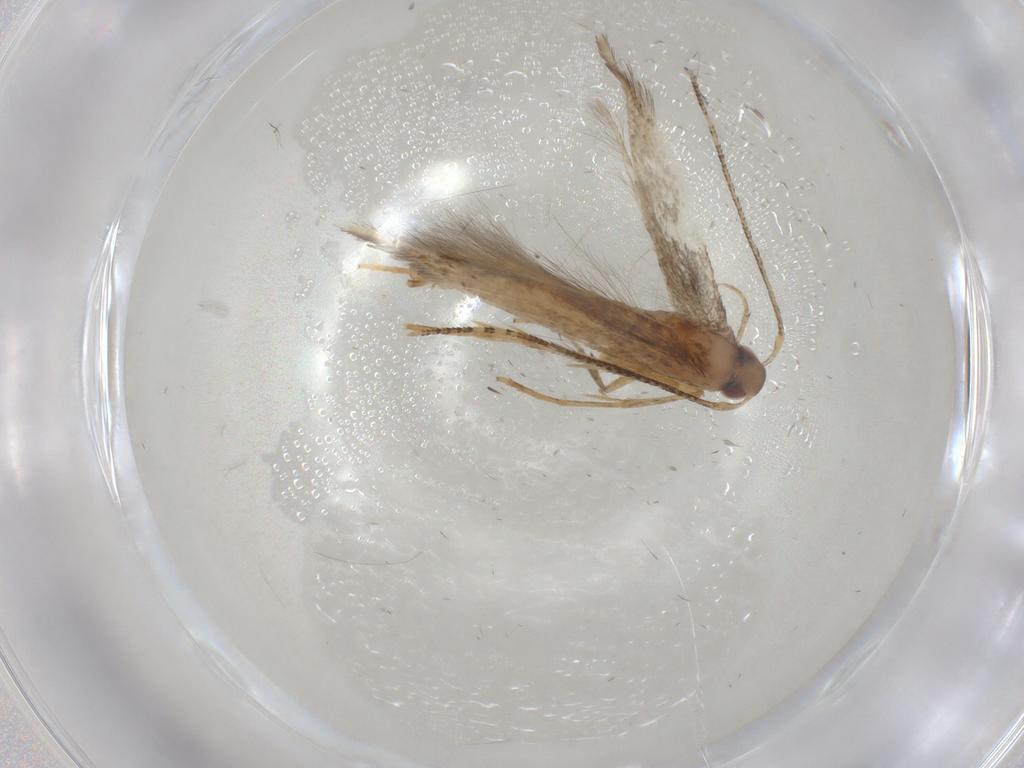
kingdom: Animalia
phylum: Arthropoda
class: Insecta
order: Lepidoptera
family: Cosmopterigidae
